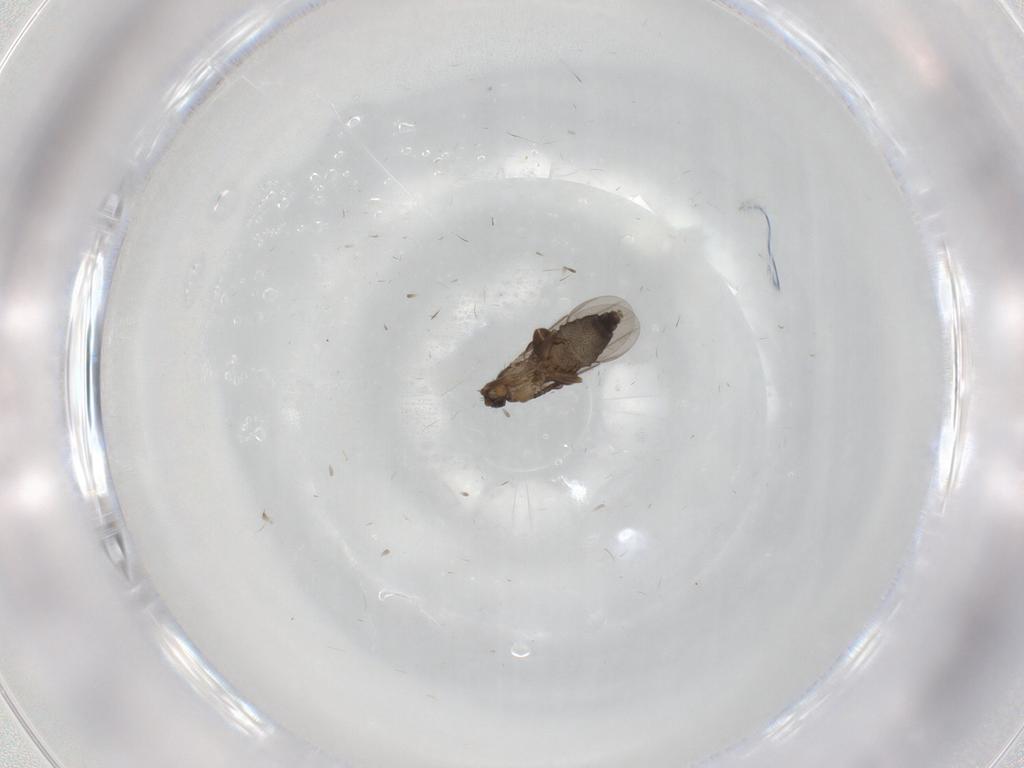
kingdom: Animalia
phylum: Arthropoda
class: Insecta
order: Diptera
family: Phoridae
